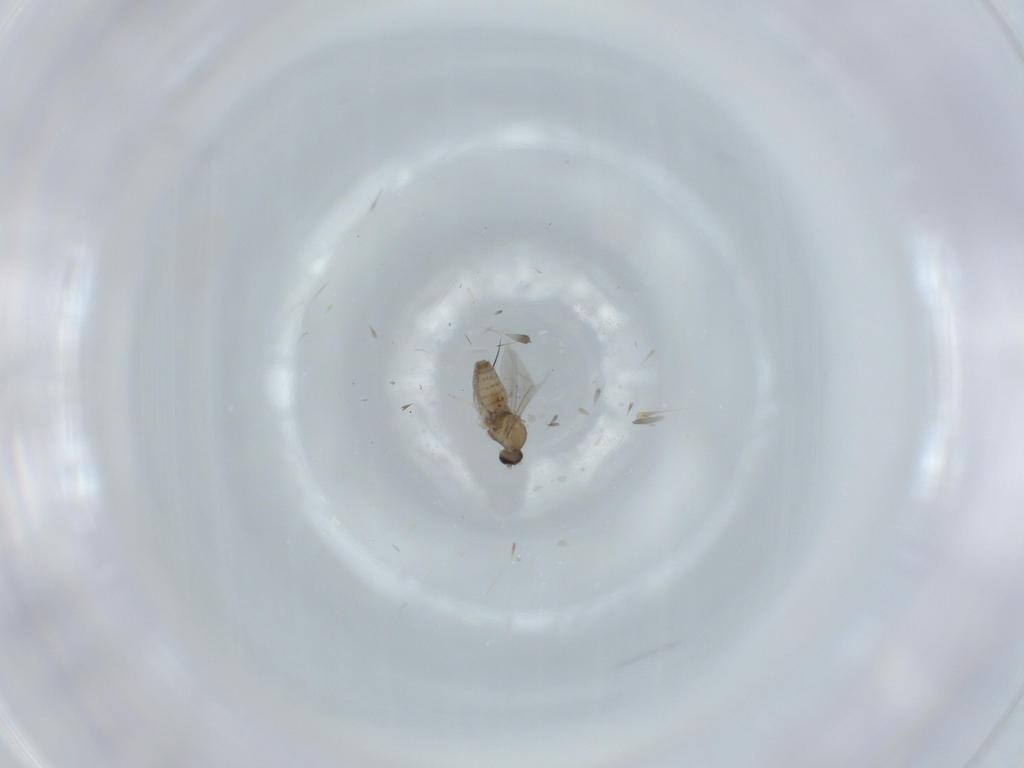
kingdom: Animalia
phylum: Arthropoda
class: Insecta
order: Diptera
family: Cecidomyiidae
